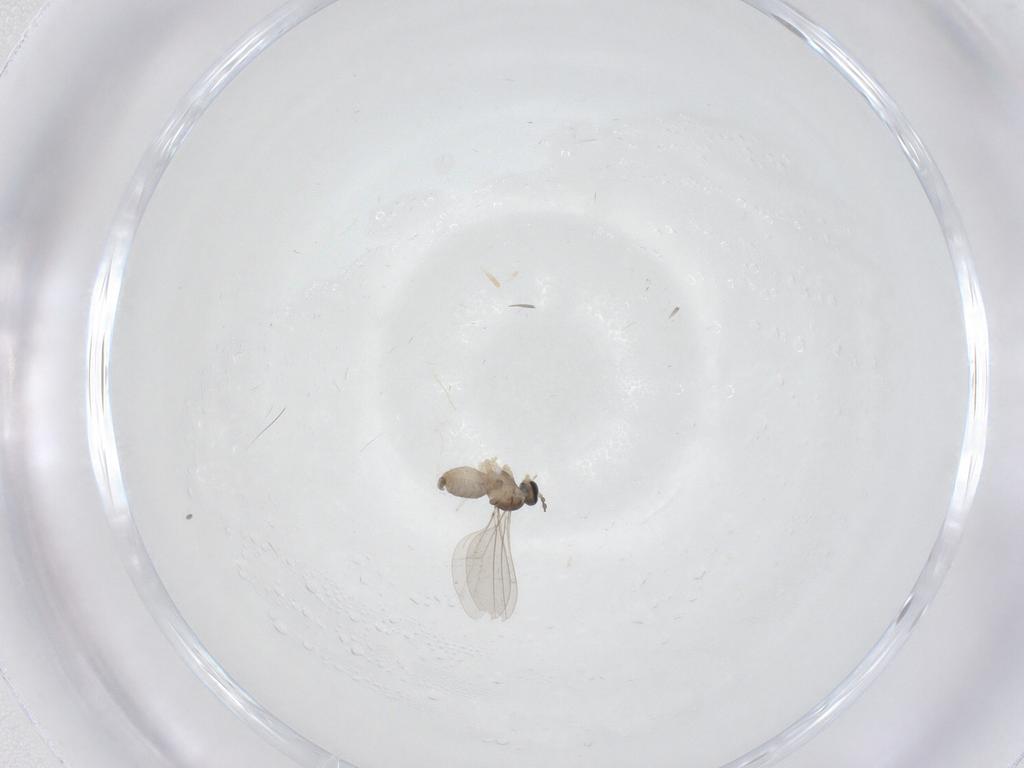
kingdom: Animalia
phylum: Arthropoda
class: Insecta
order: Diptera
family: Cecidomyiidae
